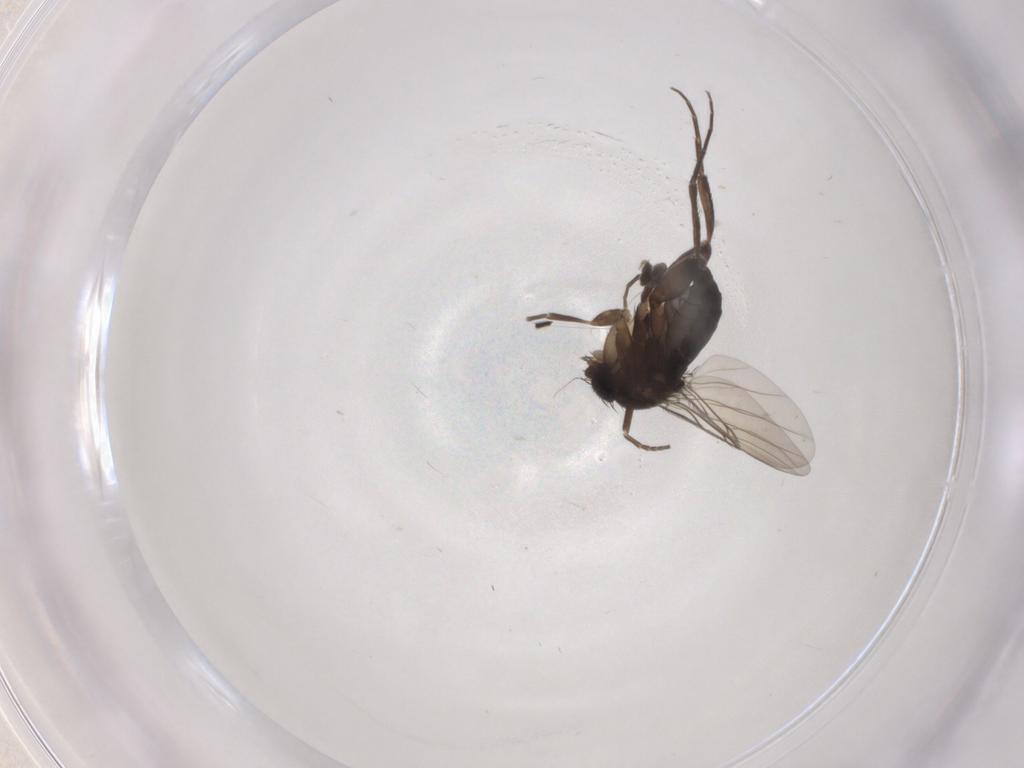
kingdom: Animalia
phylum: Arthropoda
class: Insecta
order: Diptera
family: Phoridae
